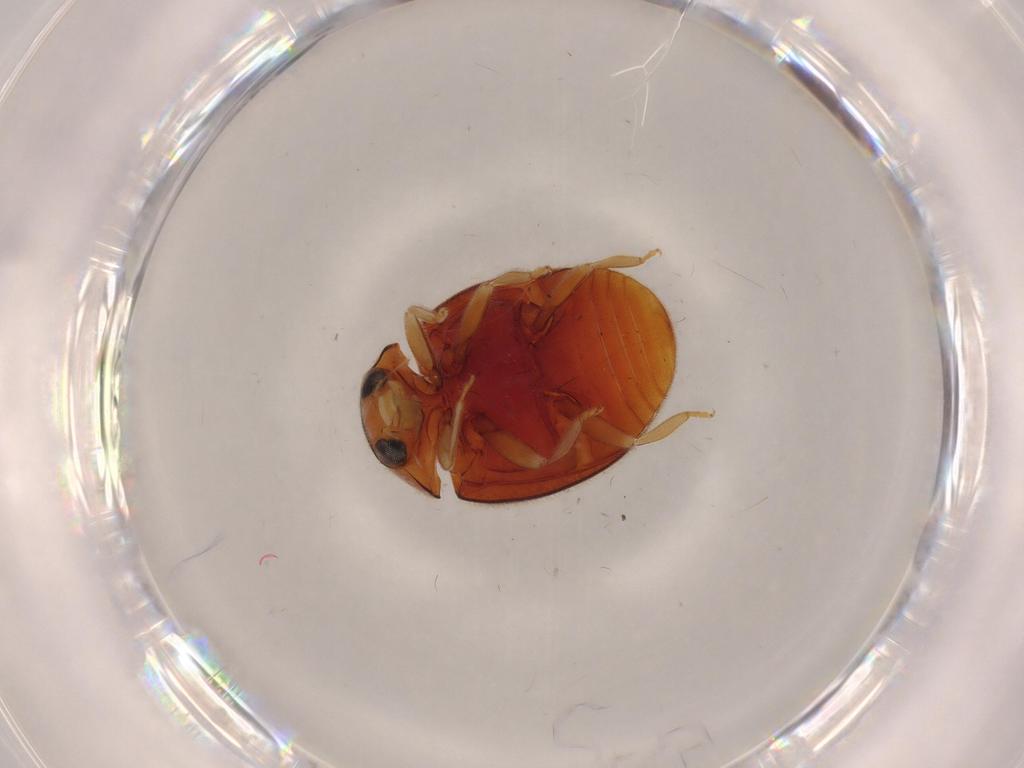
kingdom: Animalia
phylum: Arthropoda
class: Insecta
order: Coleoptera
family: Coccinellidae
